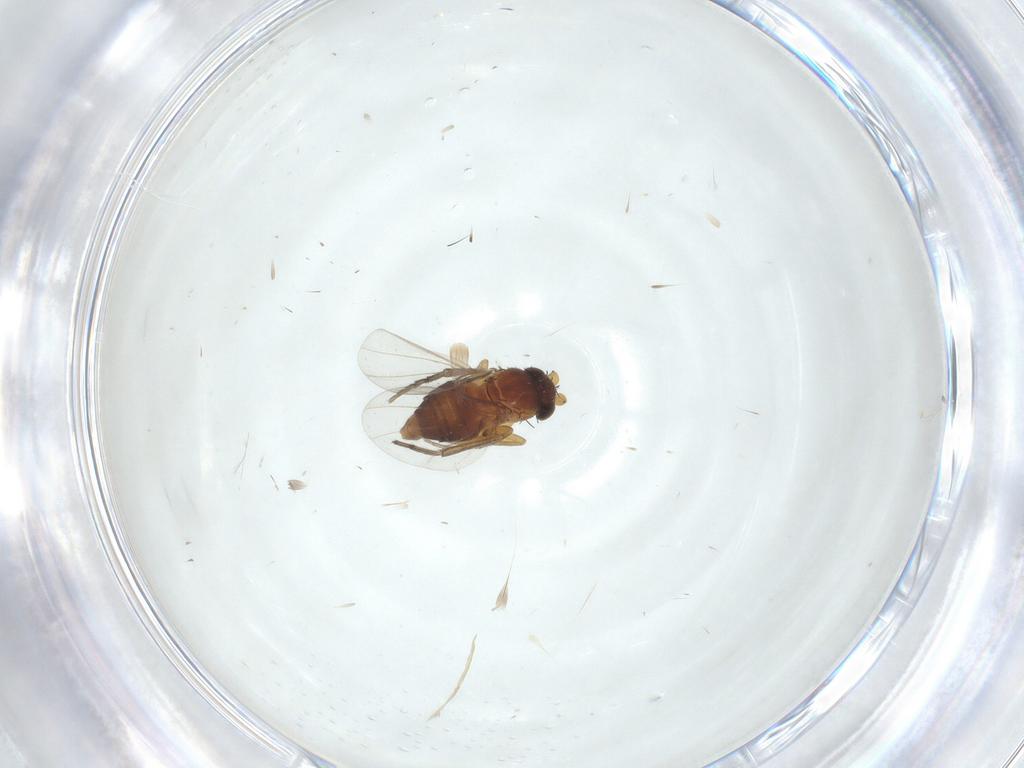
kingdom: Animalia
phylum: Arthropoda
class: Insecta
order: Diptera
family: Phoridae
